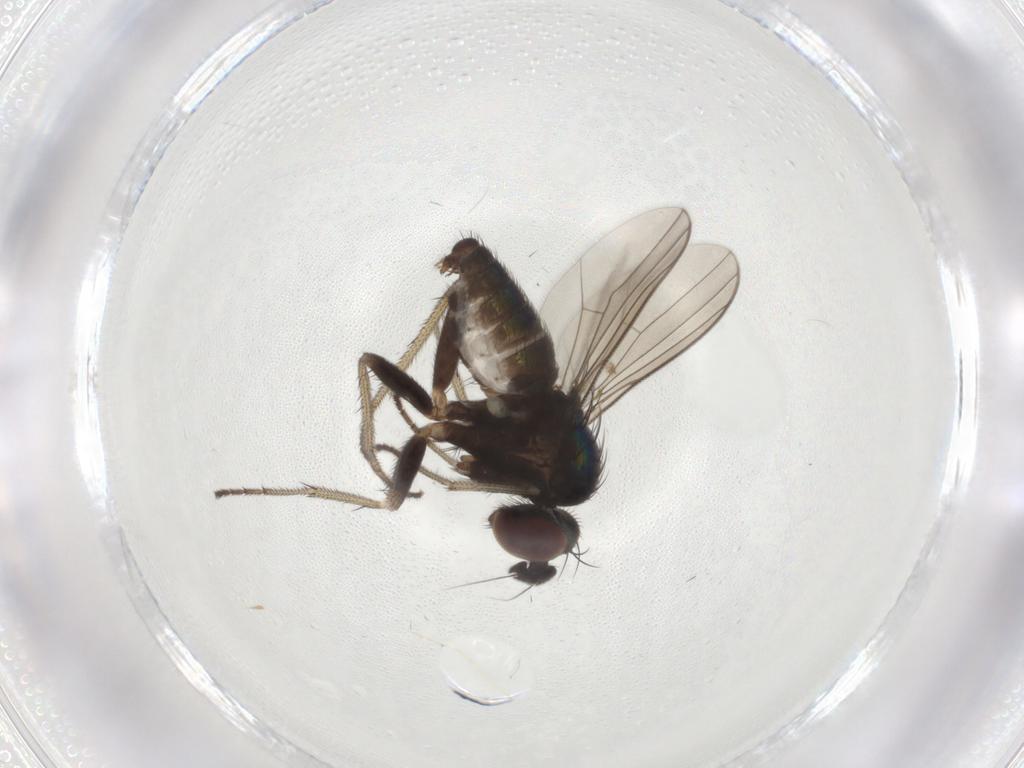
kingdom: Animalia
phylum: Arthropoda
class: Insecta
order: Diptera
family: Dolichopodidae
